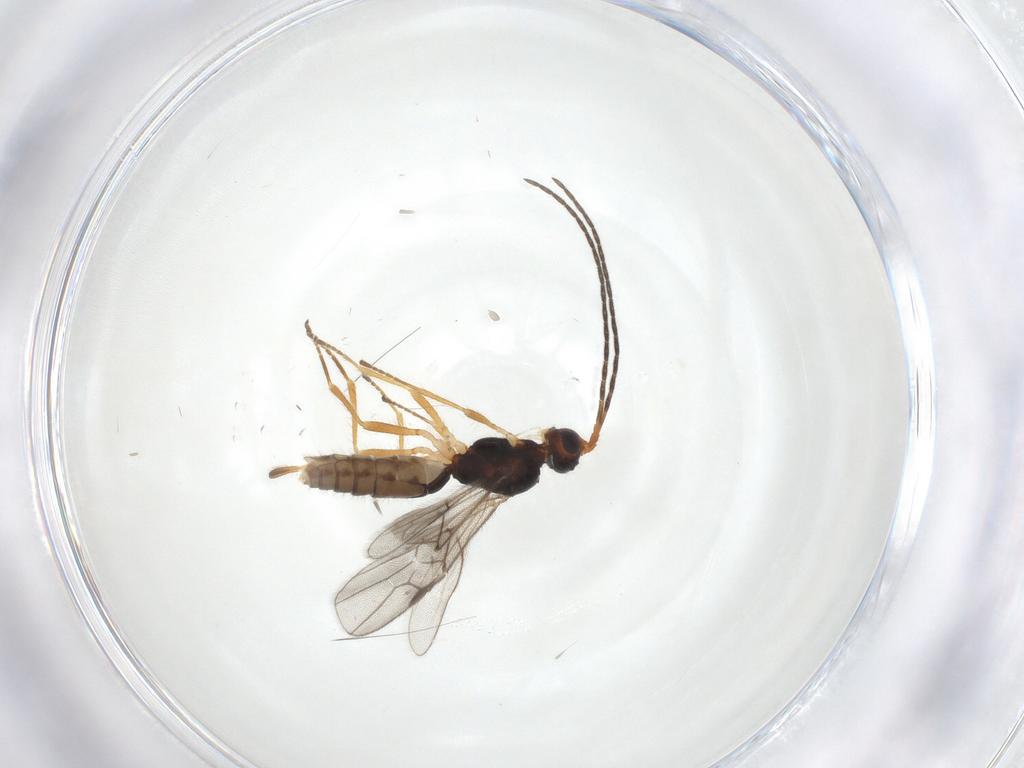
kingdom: Animalia
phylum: Arthropoda
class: Insecta
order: Hymenoptera
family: Braconidae
